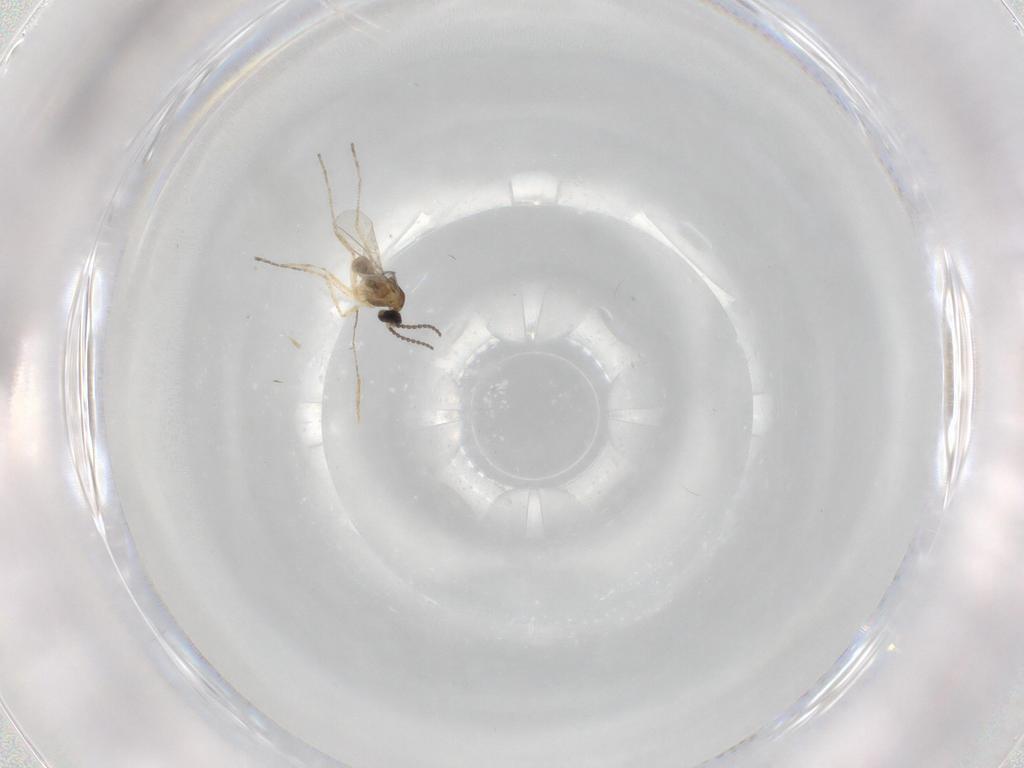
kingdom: Animalia
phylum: Arthropoda
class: Insecta
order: Diptera
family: Cecidomyiidae
